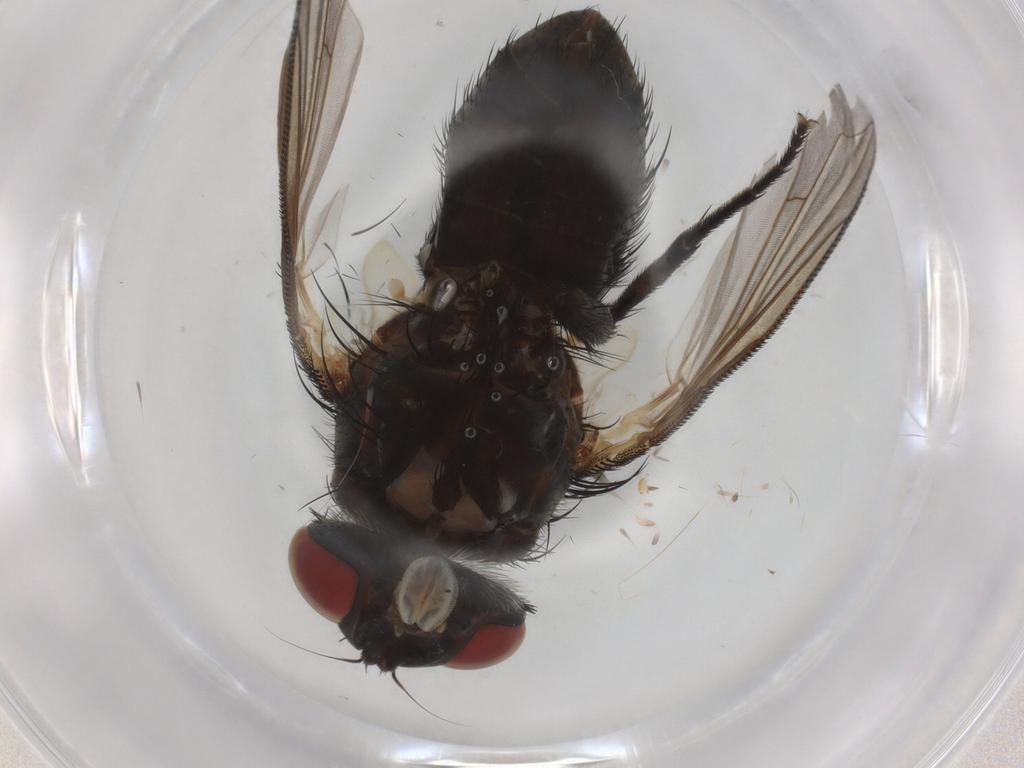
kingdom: Animalia
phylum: Arthropoda
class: Insecta
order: Diptera
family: Tachinidae
